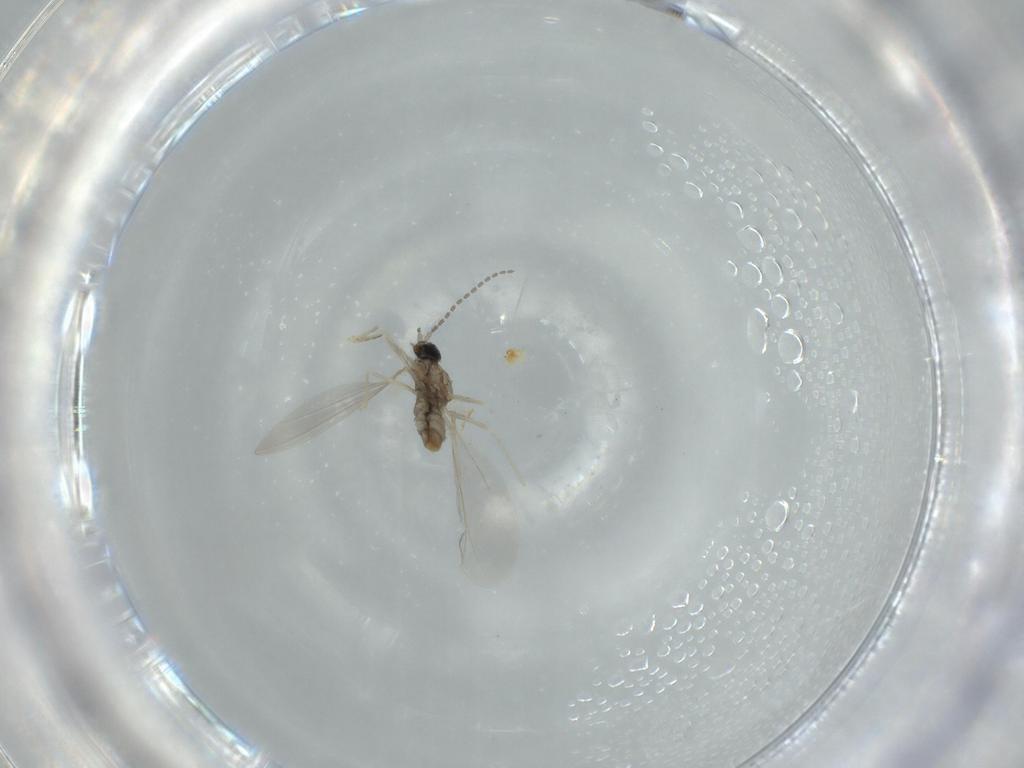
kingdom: Animalia
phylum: Arthropoda
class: Insecta
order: Diptera
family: Cecidomyiidae
